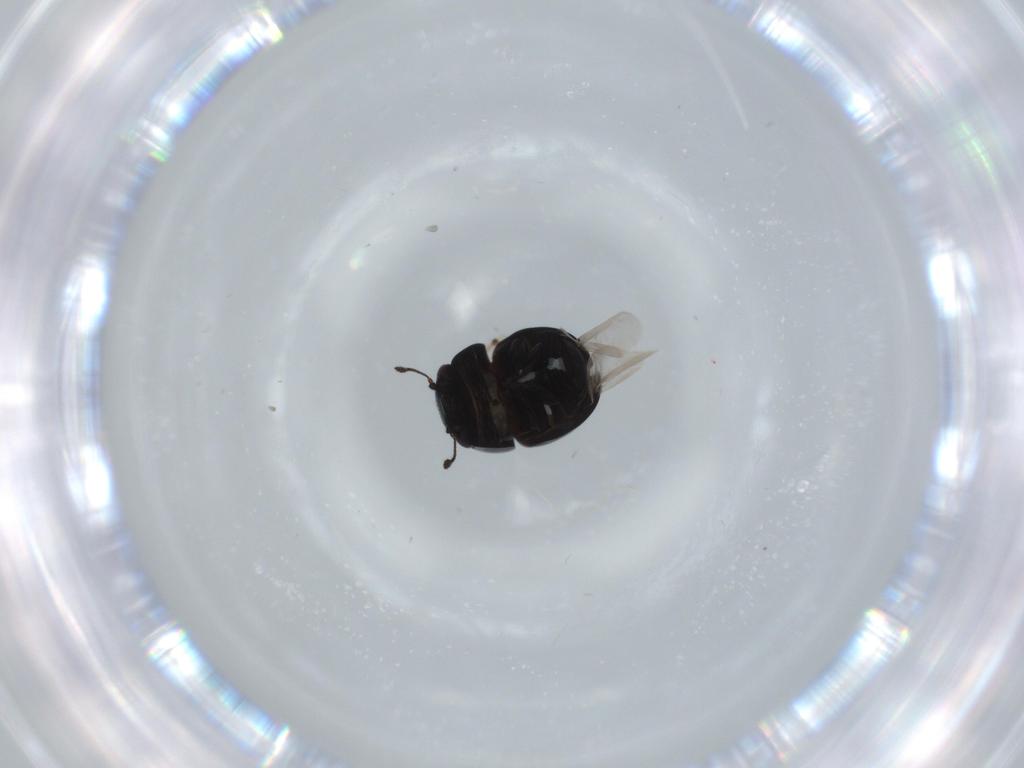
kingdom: Animalia
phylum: Arthropoda
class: Insecta
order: Coleoptera
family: Cybocephalidae
